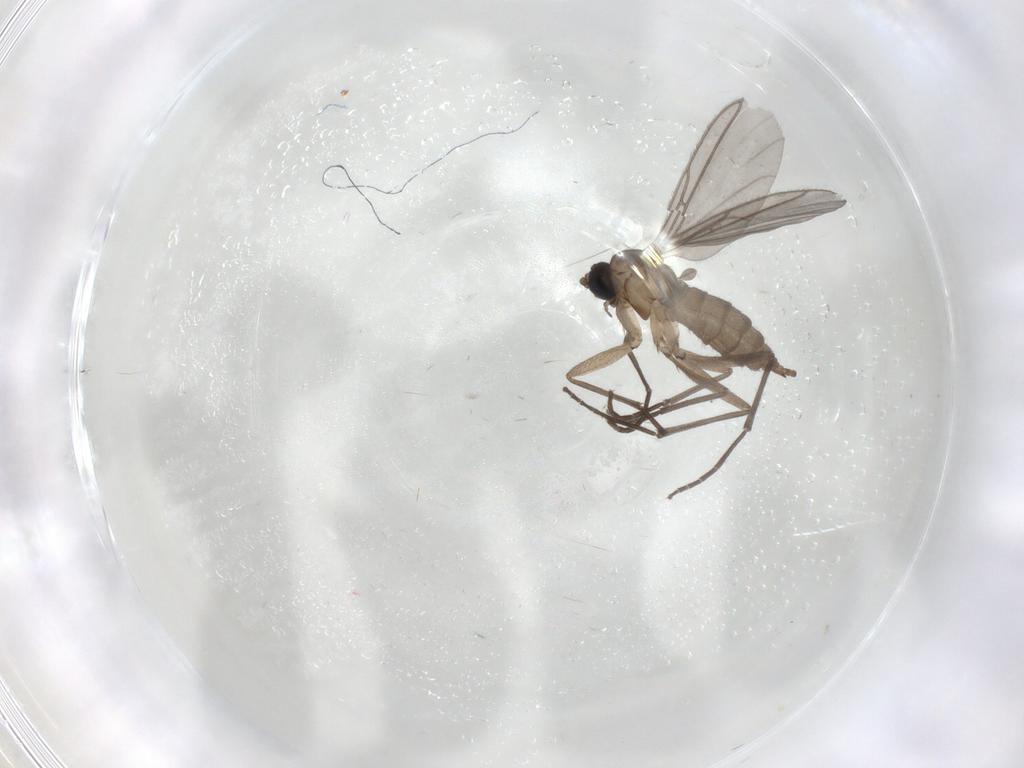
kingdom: Animalia
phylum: Arthropoda
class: Insecta
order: Diptera
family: Sciaridae
